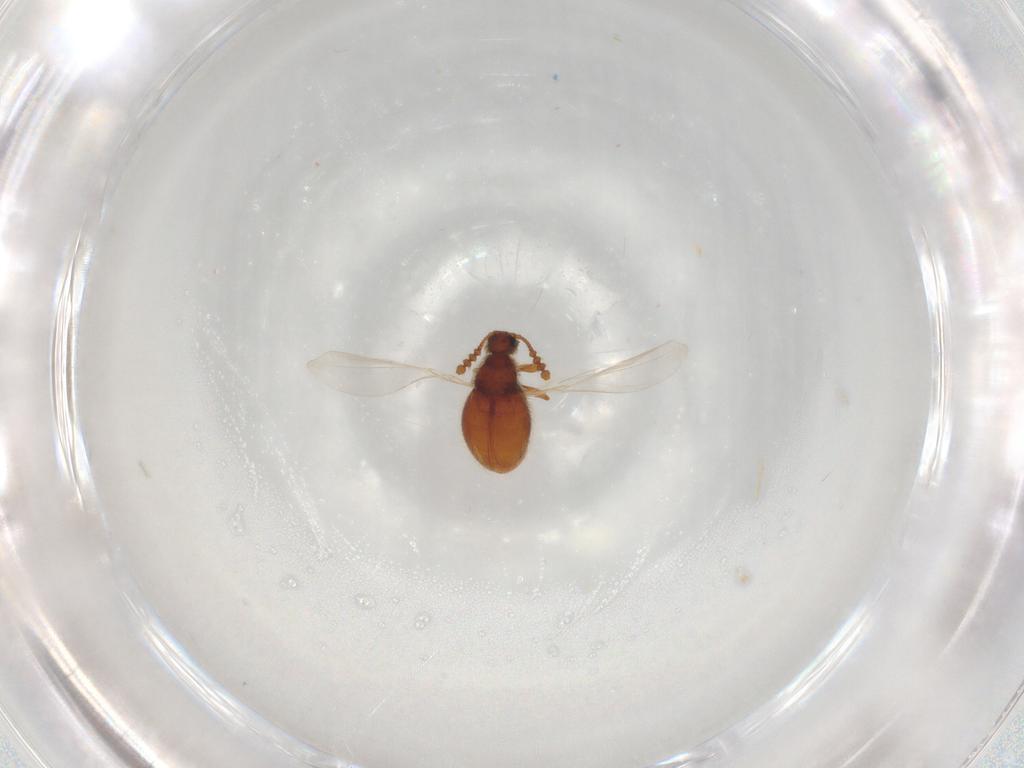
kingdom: Animalia
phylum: Arthropoda
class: Insecta
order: Coleoptera
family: Staphylinidae
